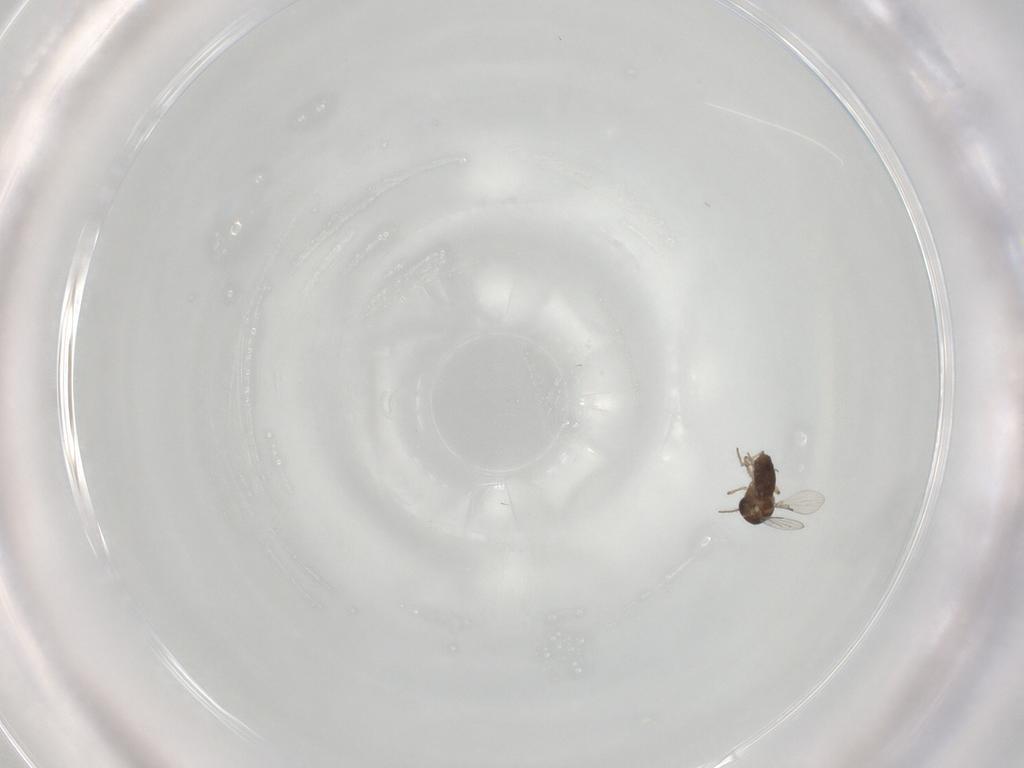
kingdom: Animalia
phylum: Arthropoda
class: Insecta
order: Diptera
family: Ceratopogonidae
